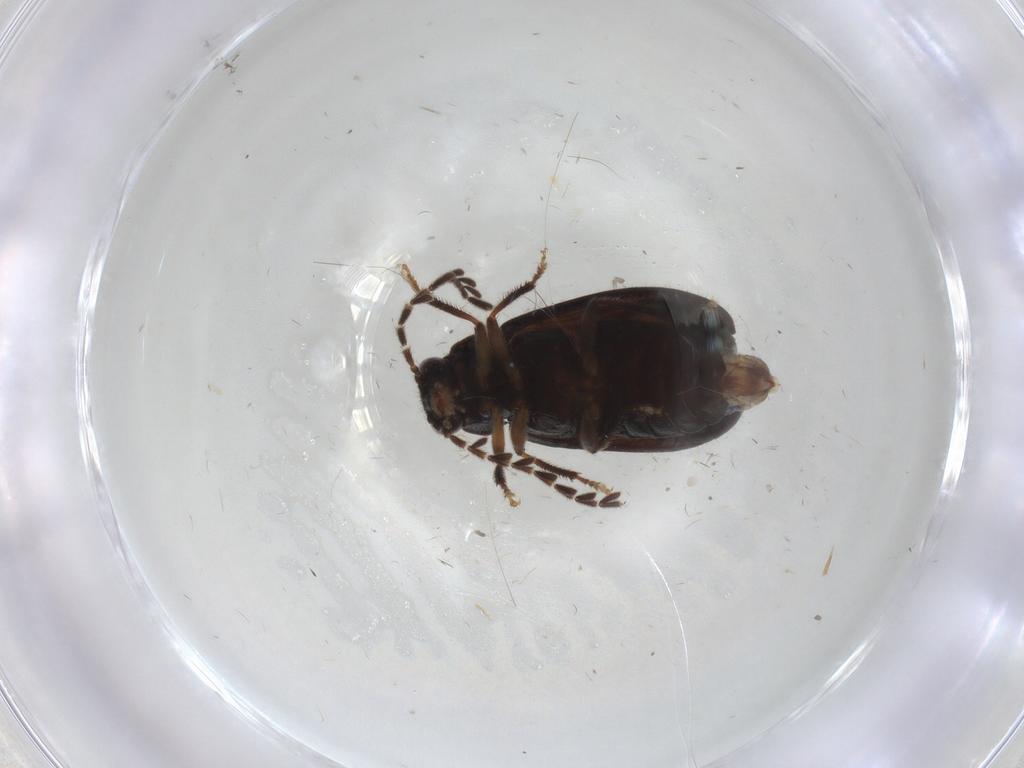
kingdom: Animalia
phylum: Arthropoda
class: Insecta
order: Coleoptera
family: Ptilodactylidae
